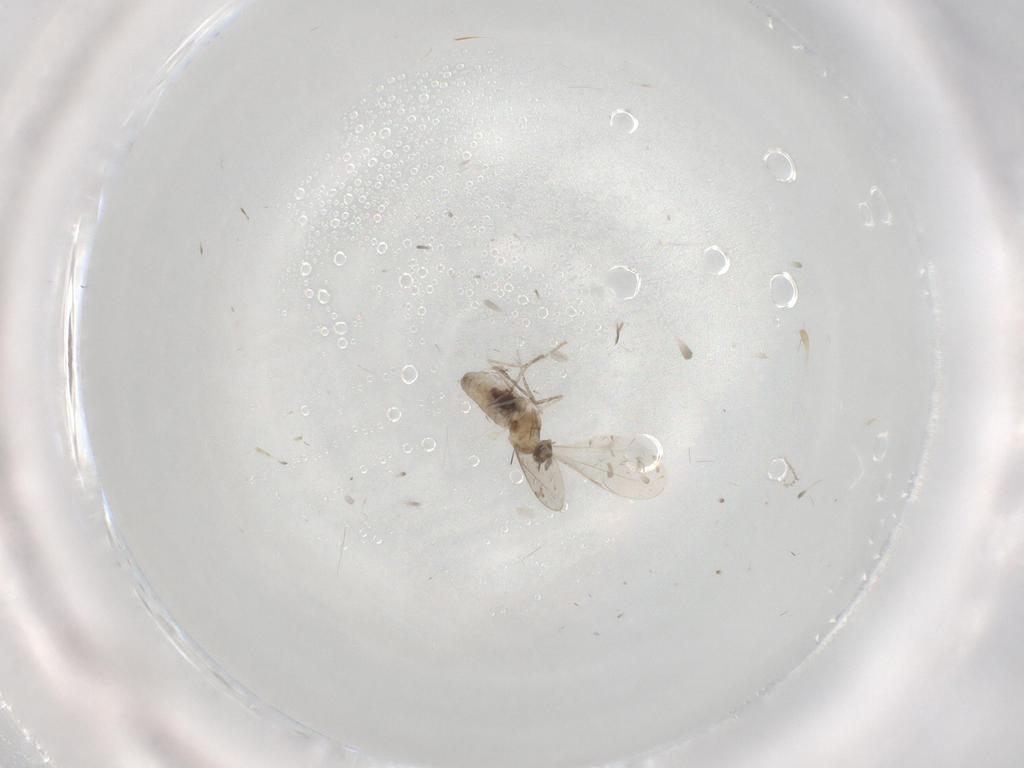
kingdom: Animalia
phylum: Arthropoda
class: Insecta
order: Diptera
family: Cecidomyiidae
